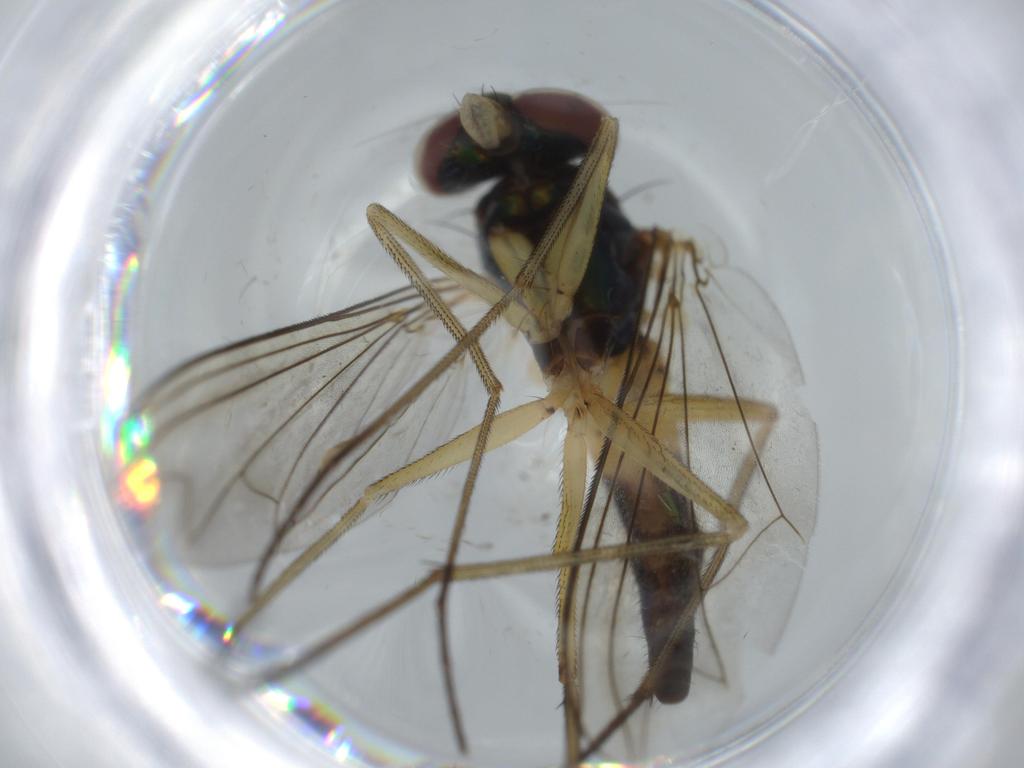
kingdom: Animalia
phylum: Arthropoda
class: Insecta
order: Diptera
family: Dolichopodidae
